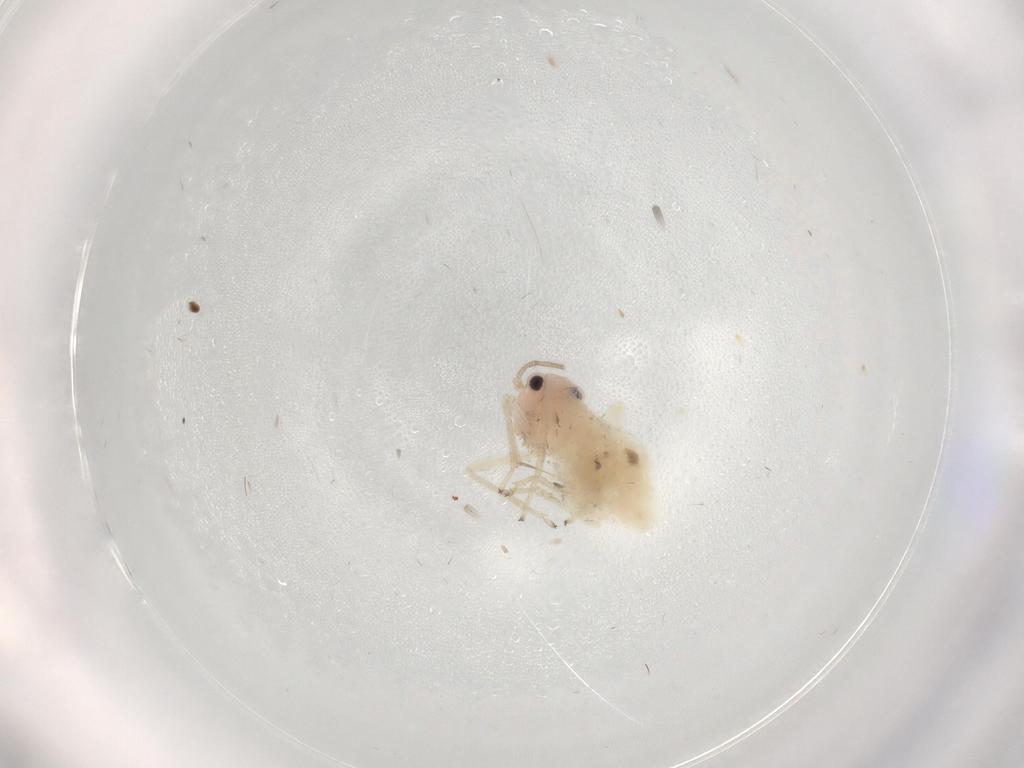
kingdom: Animalia
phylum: Arthropoda
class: Insecta
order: Psocodea
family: Caeciliusidae
